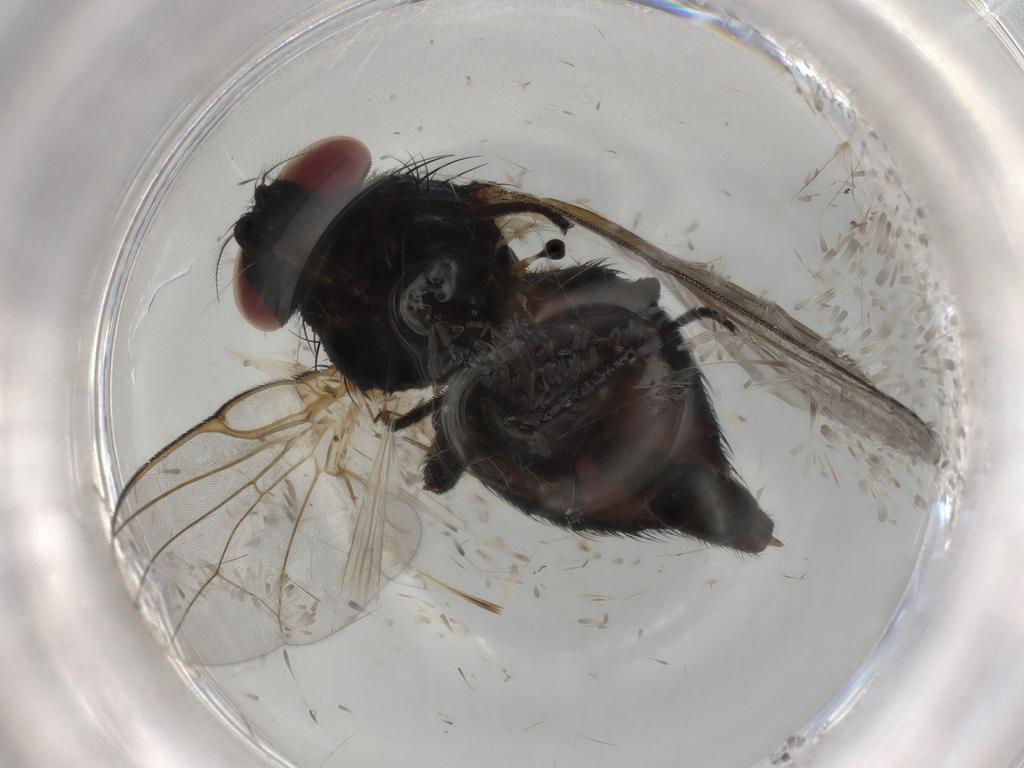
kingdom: Animalia
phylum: Arthropoda
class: Insecta
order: Diptera
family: Lonchaeidae
